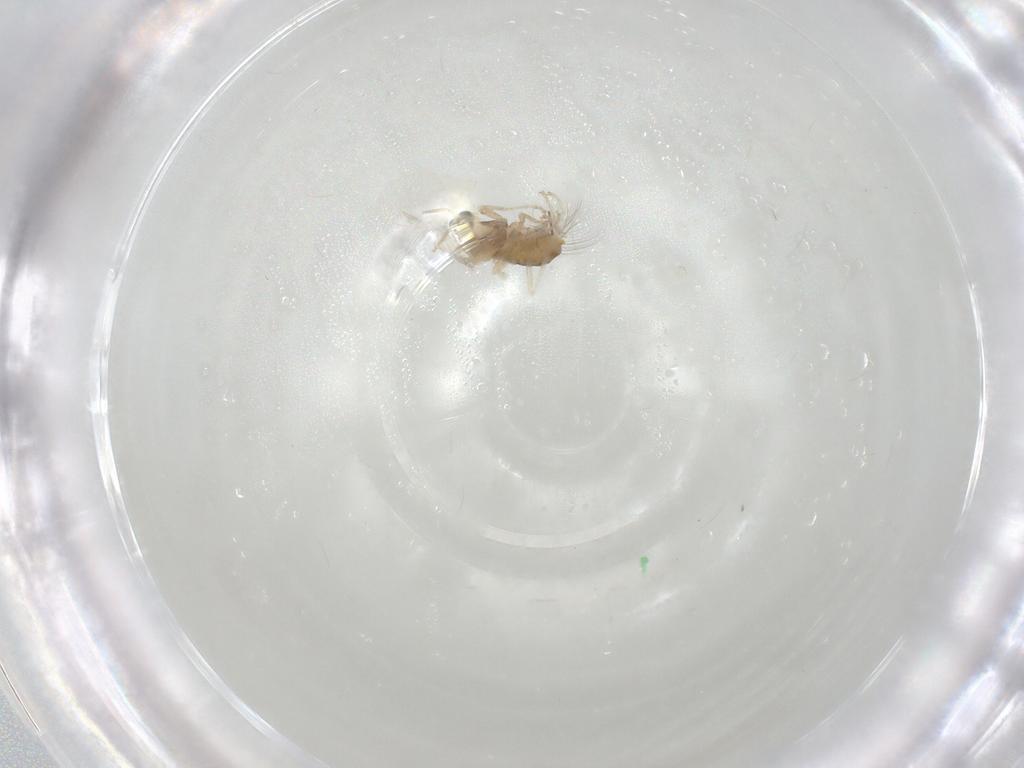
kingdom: Animalia
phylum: Arthropoda
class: Insecta
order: Diptera
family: Cecidomyiidae
